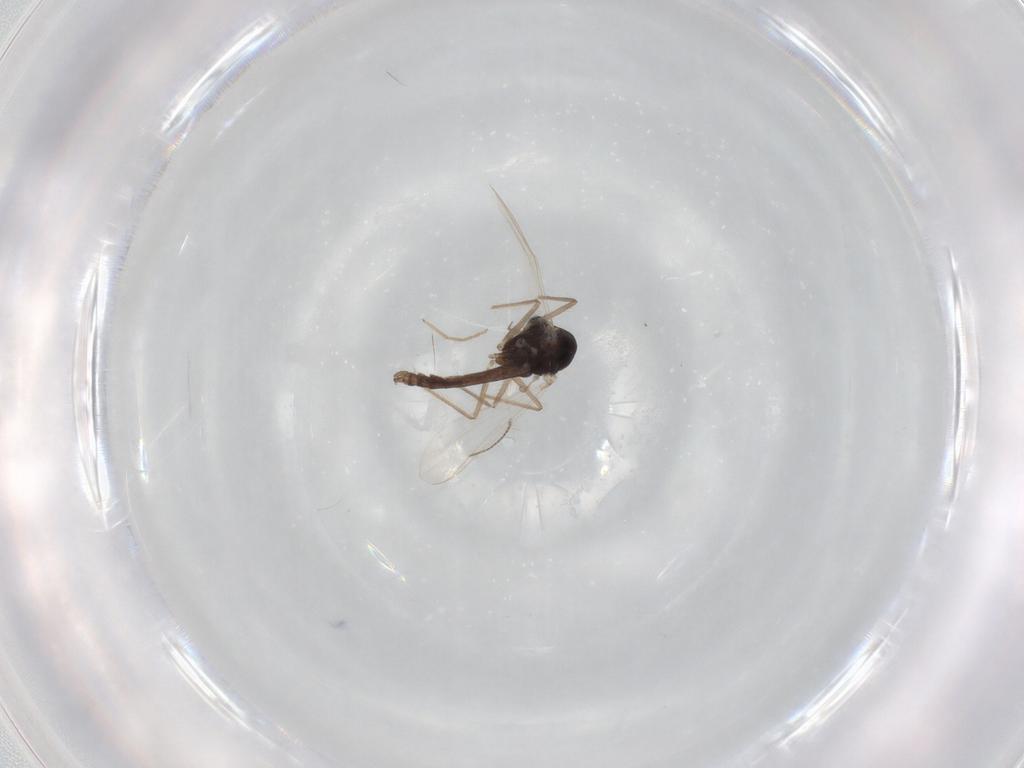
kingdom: Animalia
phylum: Arthropoda
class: Insecta
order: Diptera
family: Chironomidae
